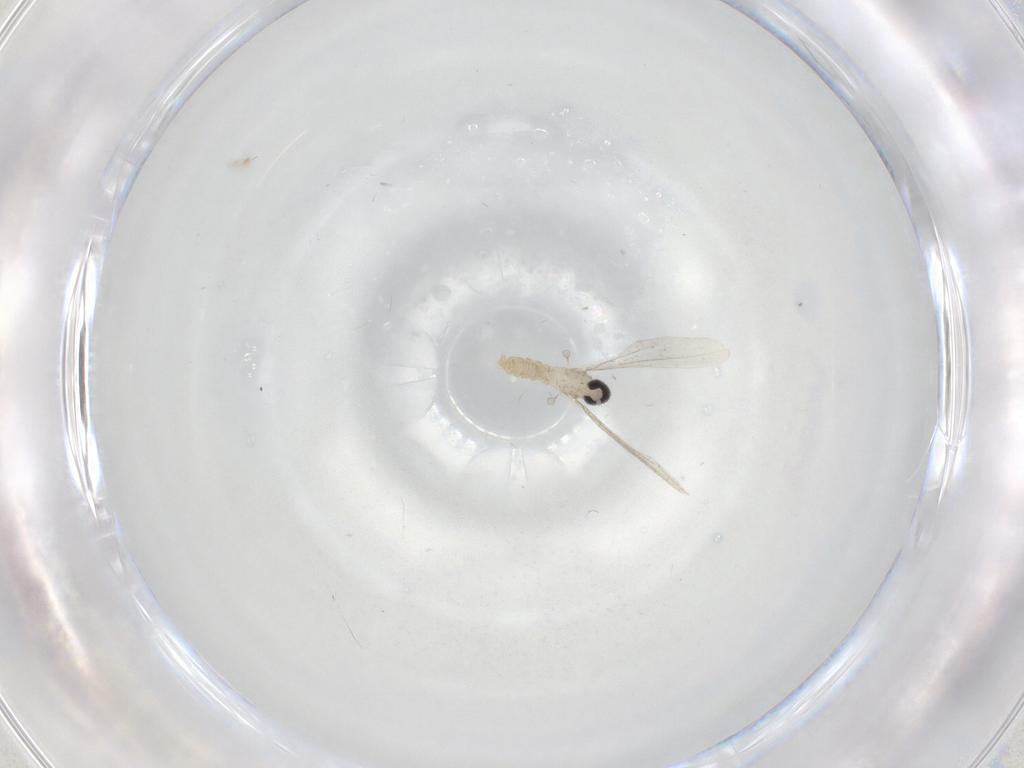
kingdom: Animalia
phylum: Arthropoda
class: Insecta
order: Diptera
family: Cecidomyiidae
